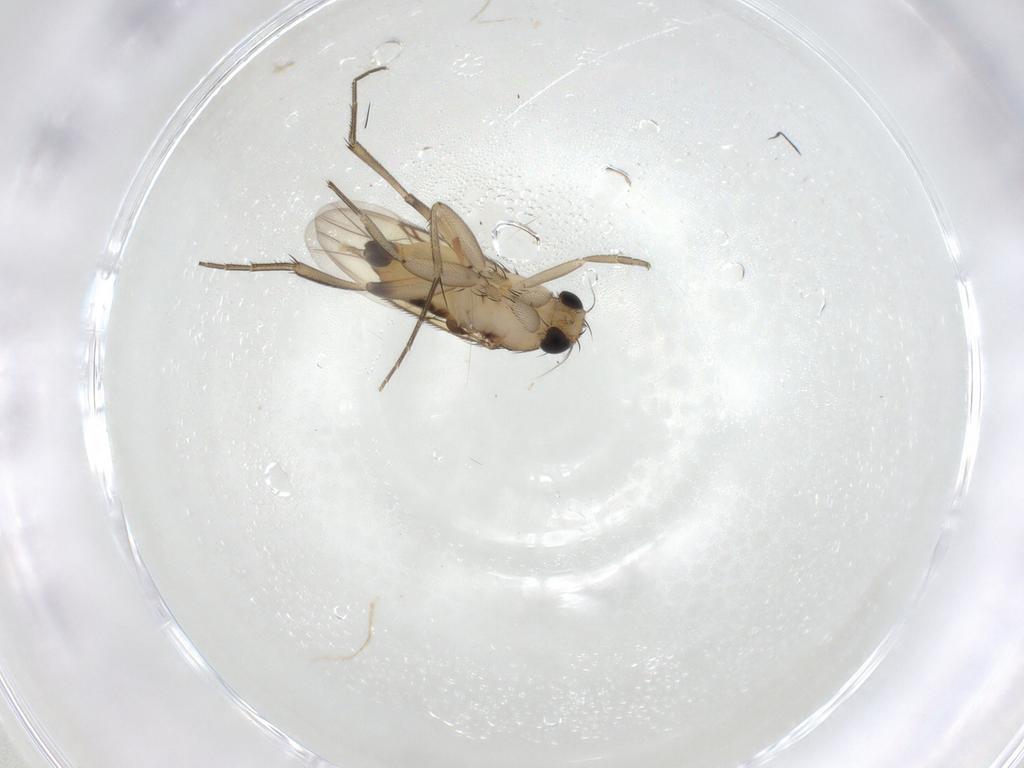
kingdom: Animalia
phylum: Arthropoda
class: Insecta
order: Diptera
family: Phoridae
